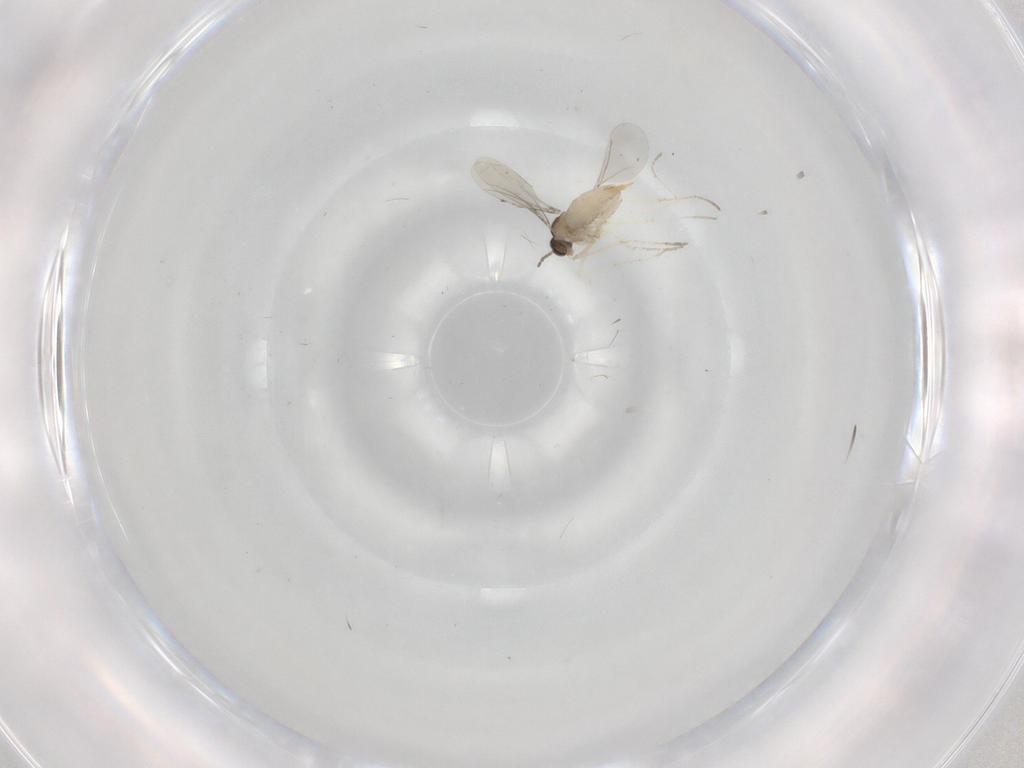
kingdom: Animalia
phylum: Arthropoda
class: Insecta
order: Diptera
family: Cecidomyiidae
